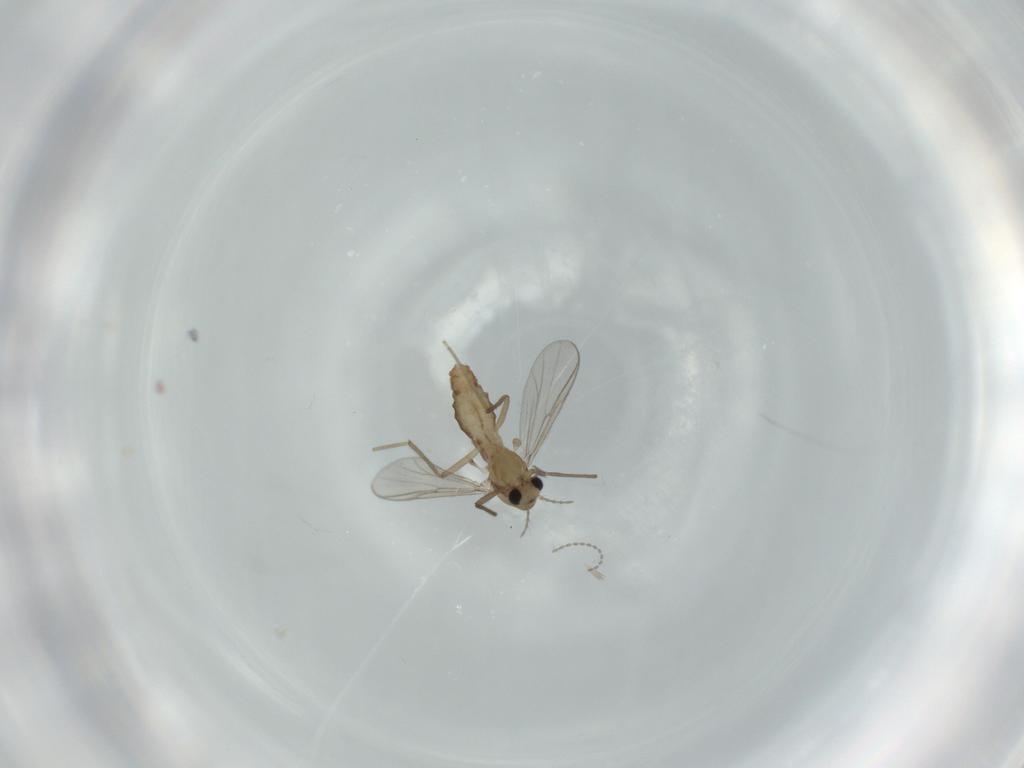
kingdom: Animalia
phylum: Arthropoda
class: Insecta
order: Diptera
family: Chironomidae
